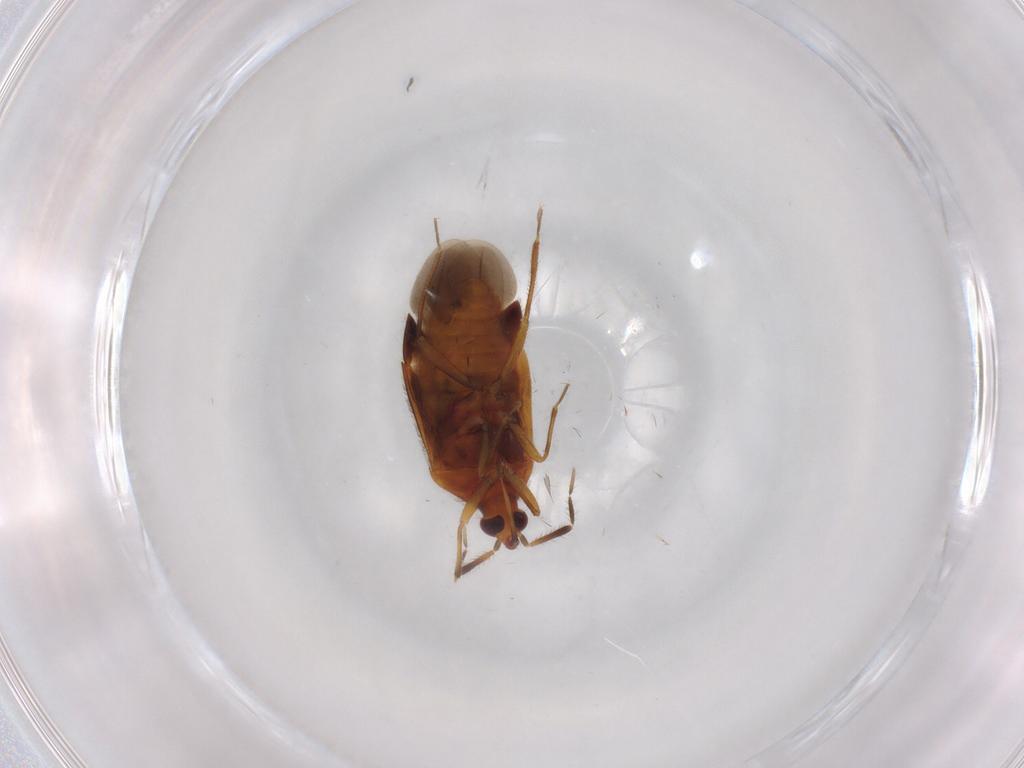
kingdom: Animalia
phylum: Arthropoda
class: Insecta
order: Hemiptera
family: Anthocoridae
